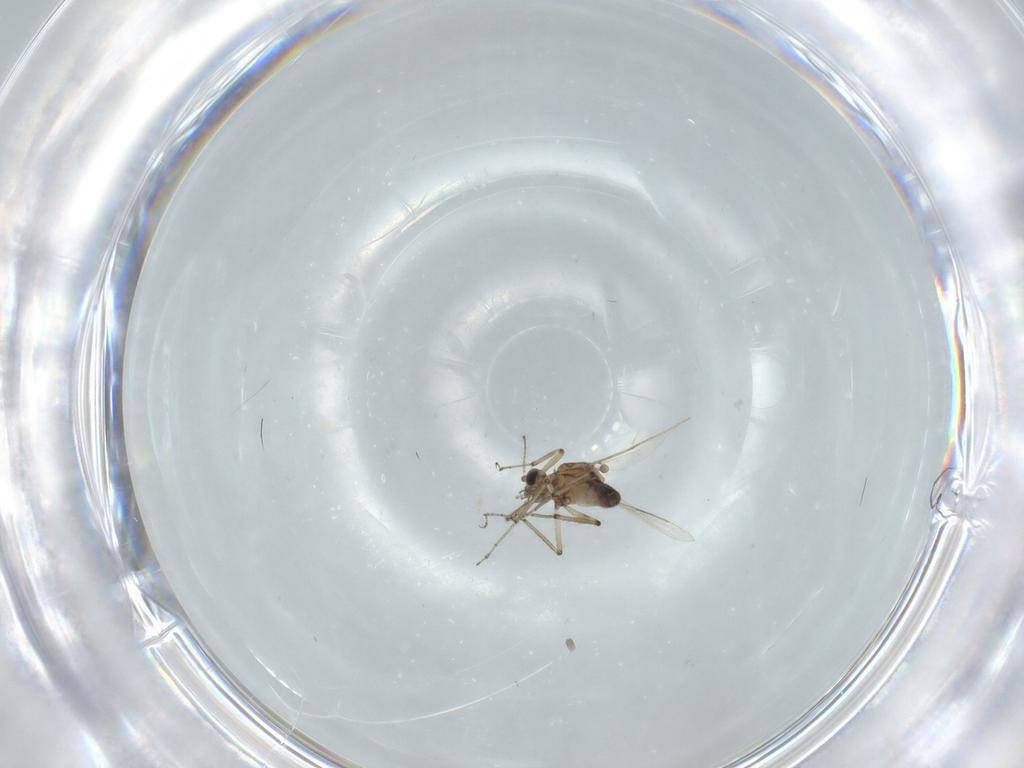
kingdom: Animalia
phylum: Arthropoda
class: Insecta
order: Diptera
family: Ceratopogonidae
